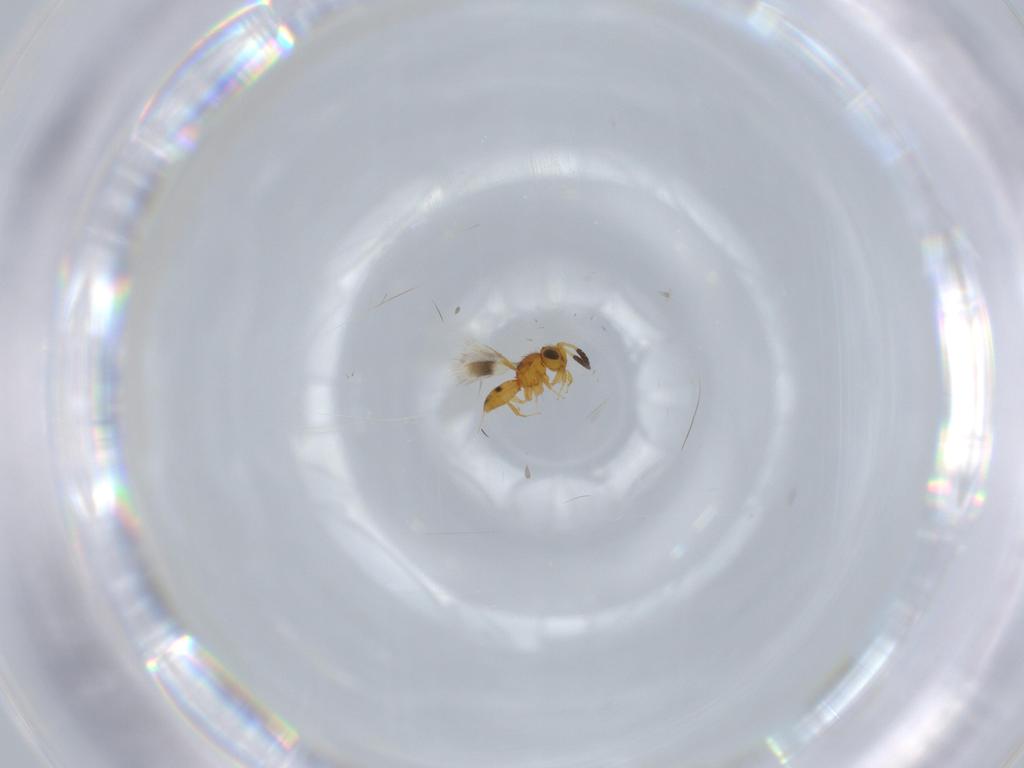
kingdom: Animalia
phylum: Arthropoda
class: Insecta
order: Hymenoptera
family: Scelionidae
